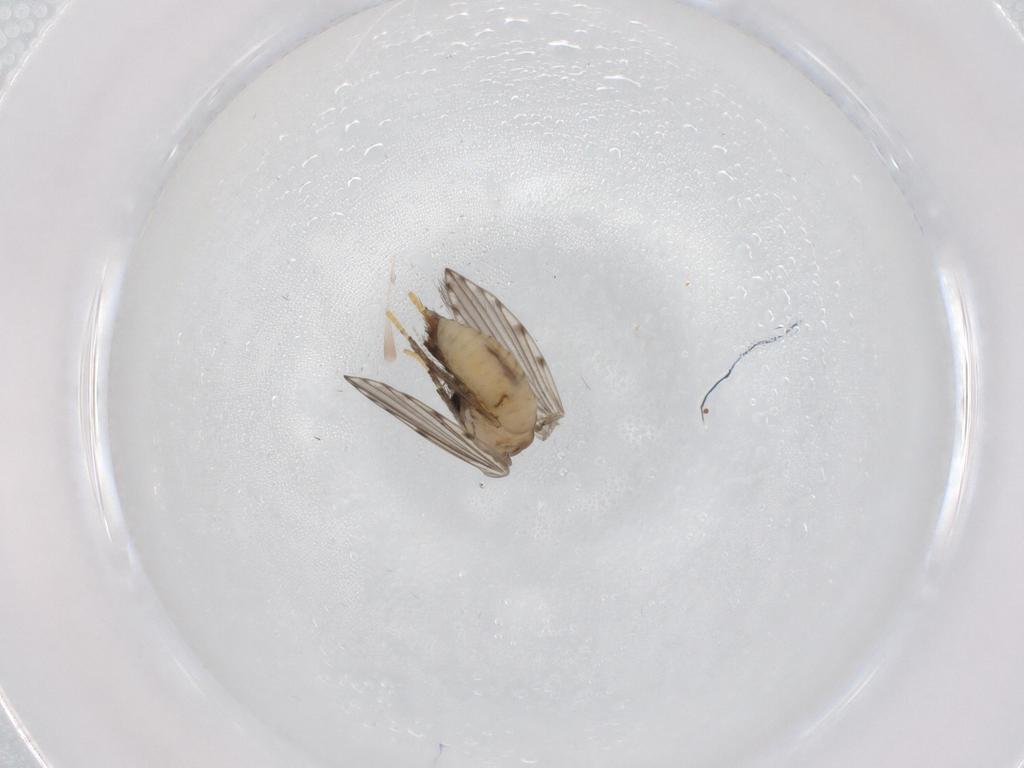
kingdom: Animalia
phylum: Arthropoda
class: Insecta
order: Diptera
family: Psychodidae
